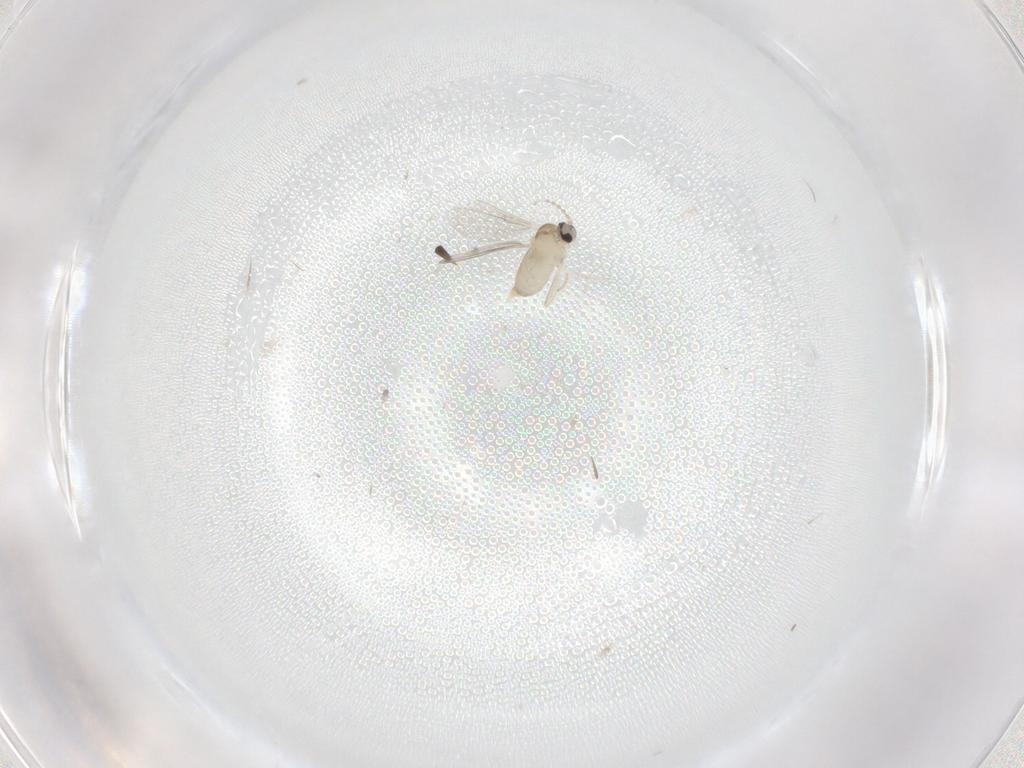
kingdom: Animalia
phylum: Arthropoda
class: Insecta
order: Diptera
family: Cecidomyiidae
